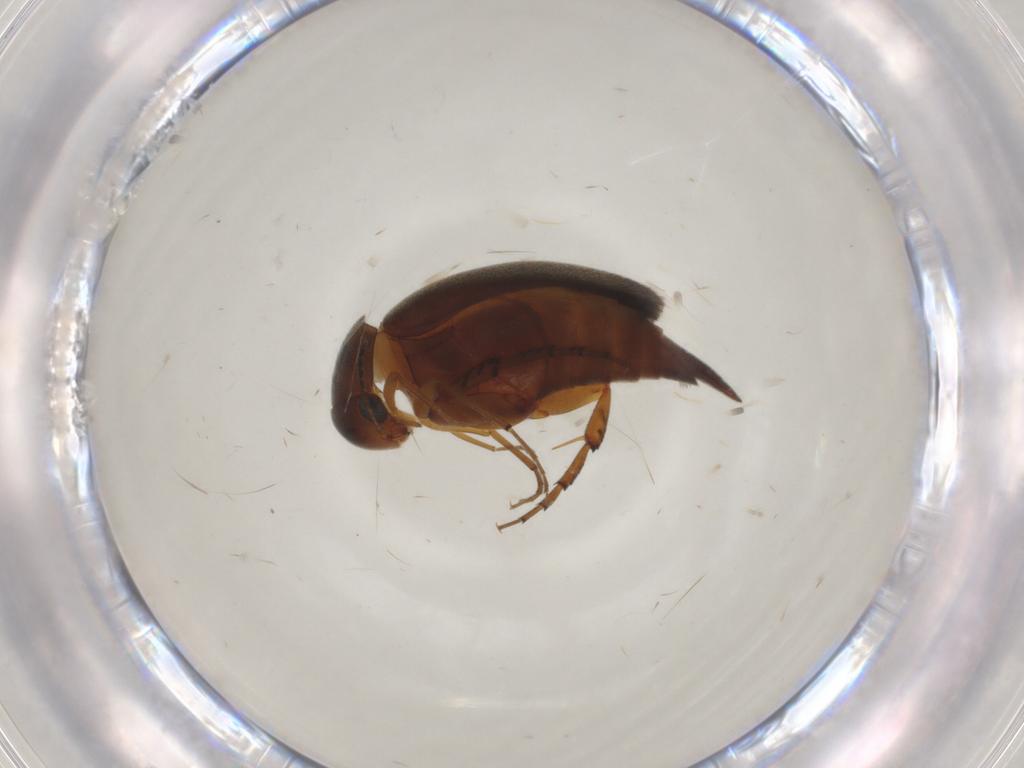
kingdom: Animalia
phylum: Arthropoda
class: Insecta
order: Coleoptera
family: Mordellidae
